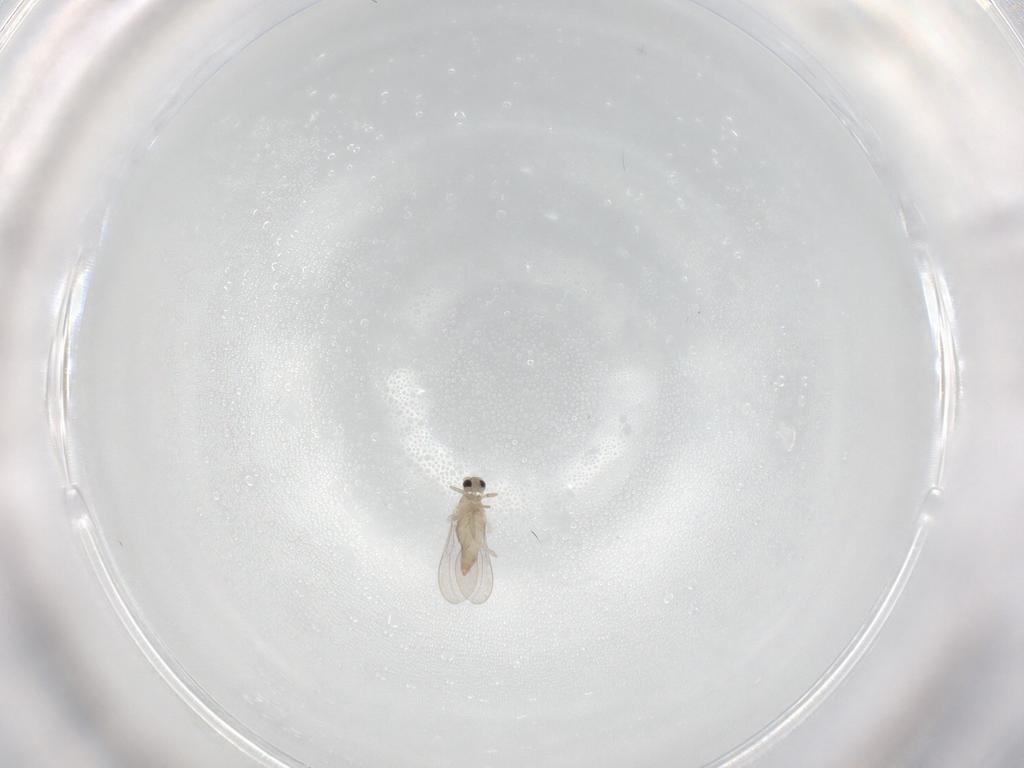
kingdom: Animalia
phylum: Arthropoda
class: Insecta
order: Diptera
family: Cecidomyiidae
